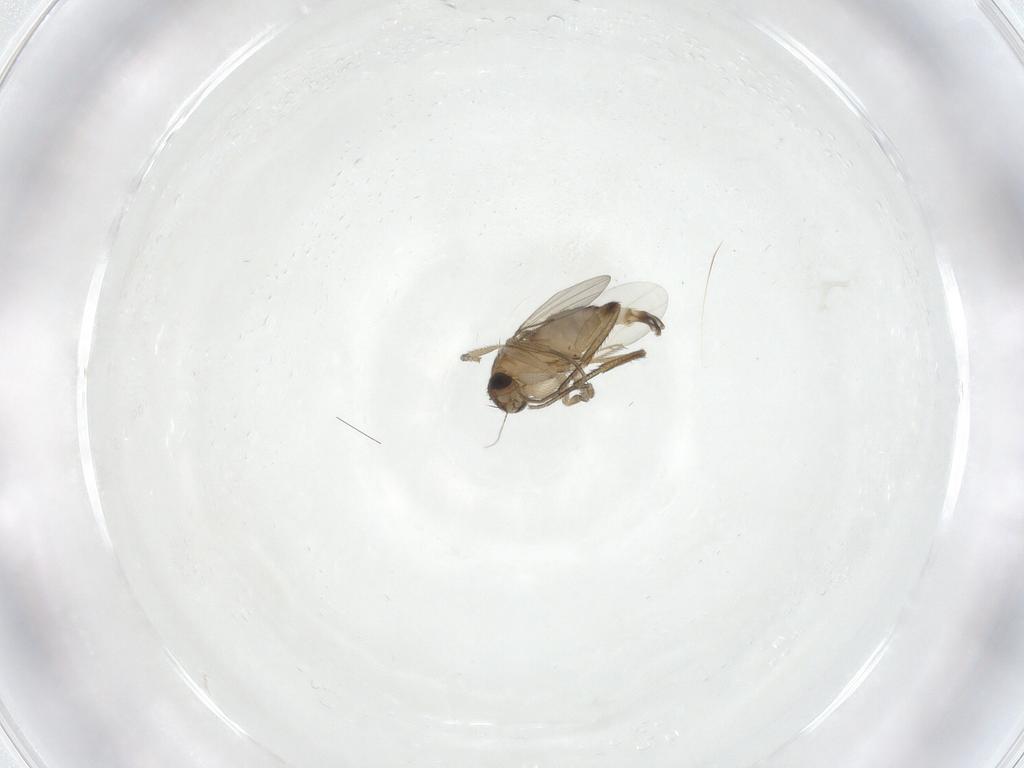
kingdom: Animalia
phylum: Arthropoda
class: Insecta
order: Diptera
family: Phoridae
